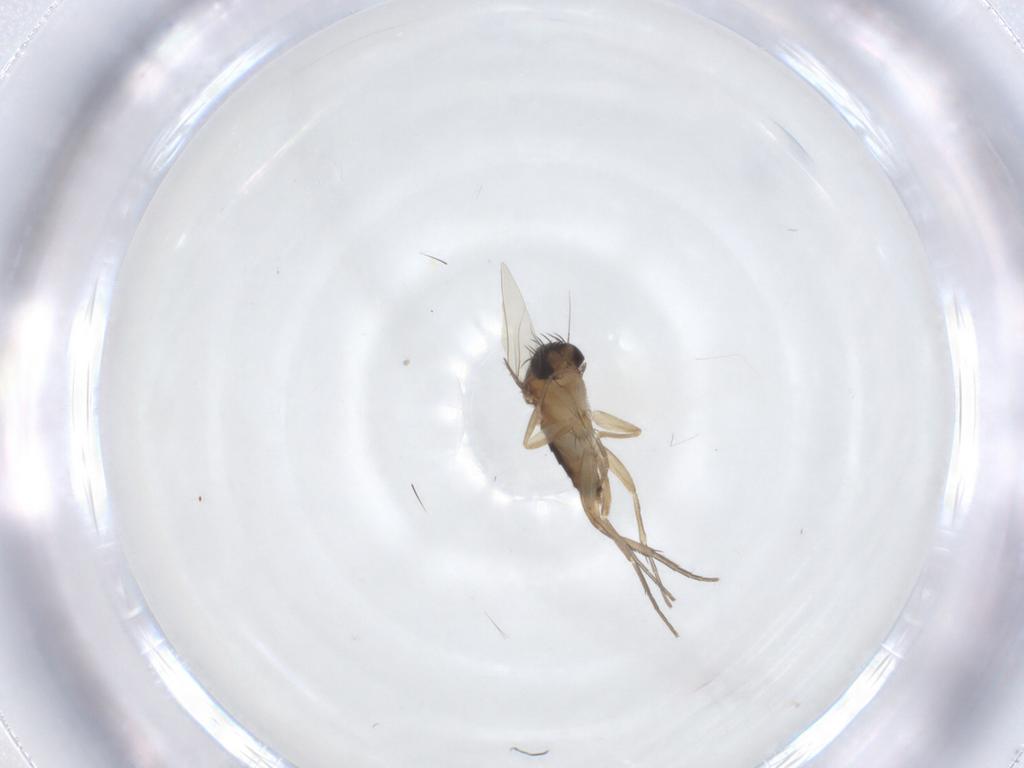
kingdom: Animalia
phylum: Arthropoda
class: Insecta
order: Diptera
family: Phoridae
